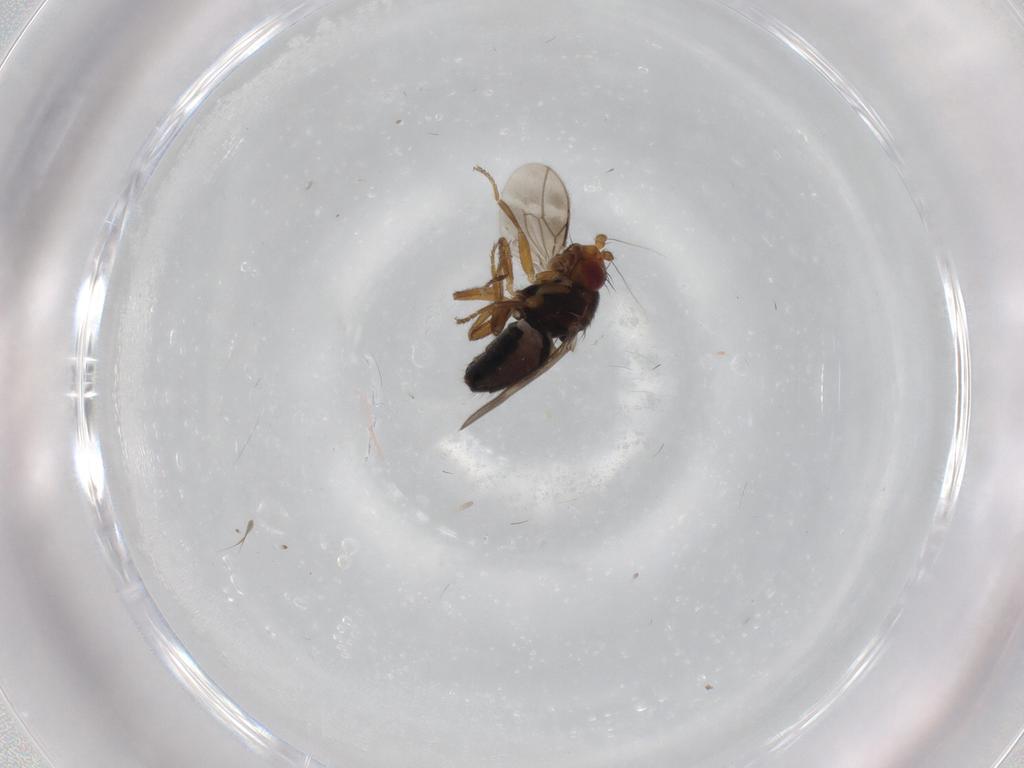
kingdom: Animalia
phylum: Arthropoda
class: Insecta
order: Diptera
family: Sphaeroceridae
